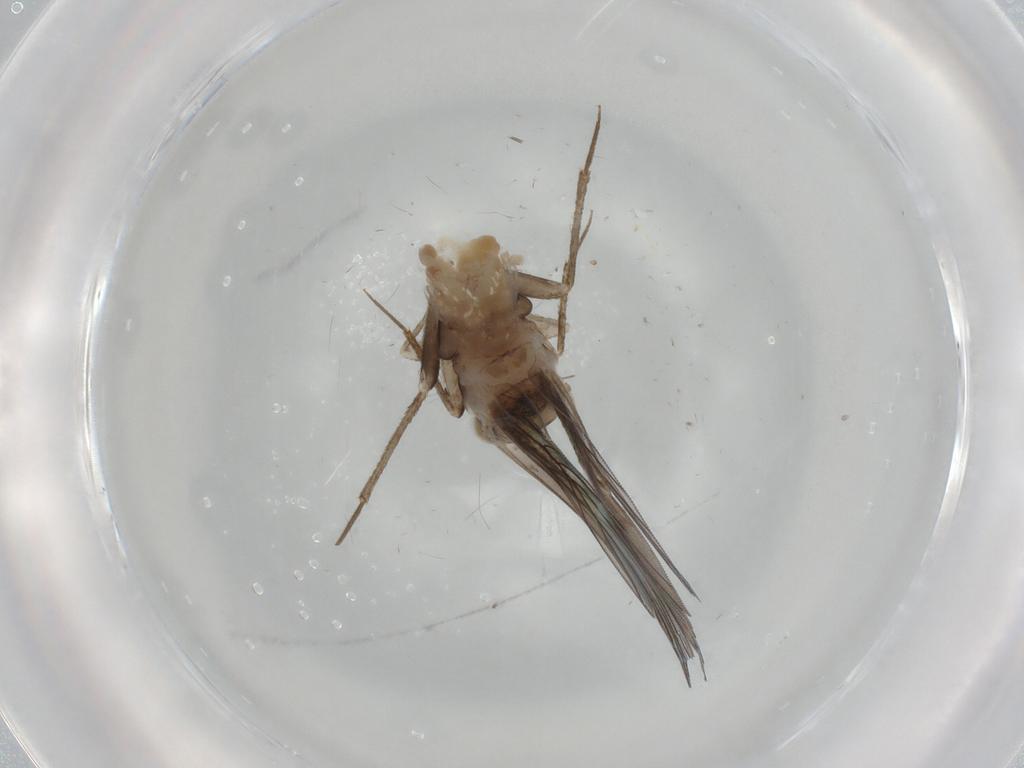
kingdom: Animalia
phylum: Arthropoda
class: Insecta
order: Psocodea
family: Lepidopsocidae
